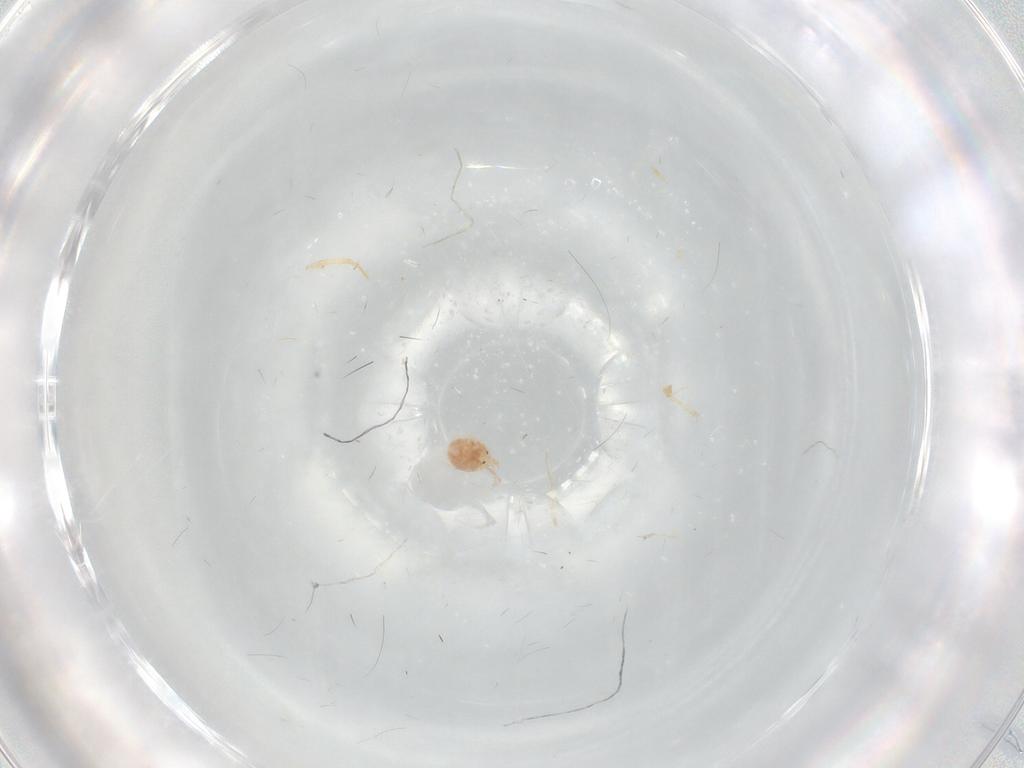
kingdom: Animalia
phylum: Arthropoda
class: Arachnida
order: Trombidiformes
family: Hygrobatidae
